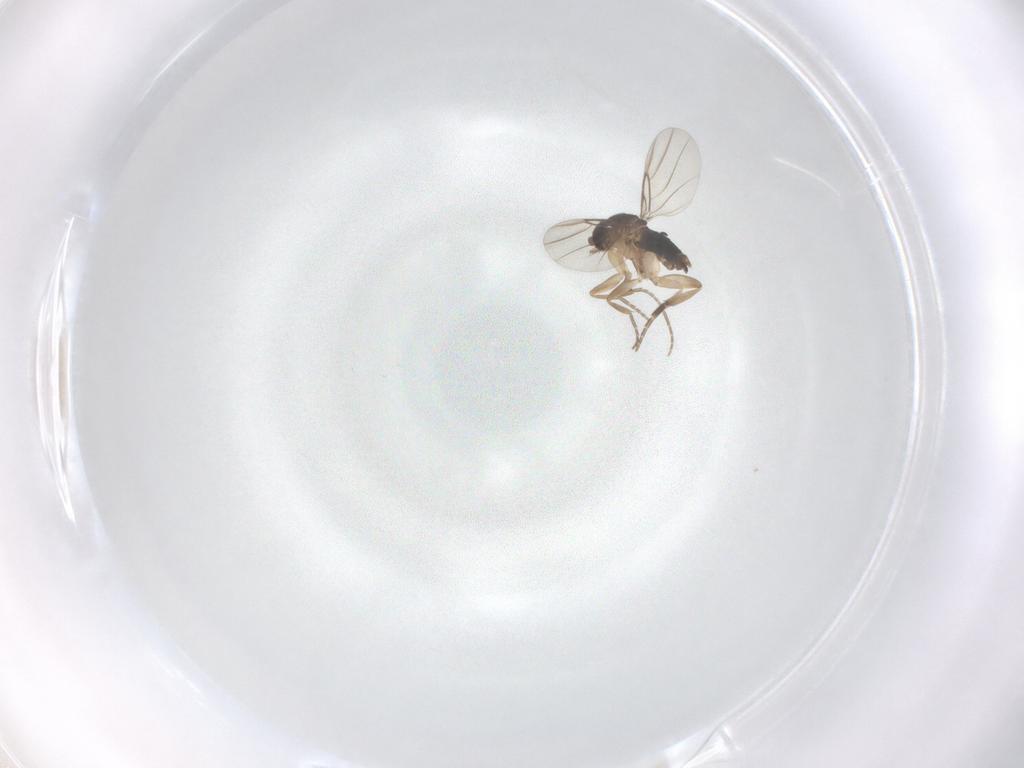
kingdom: Animalia
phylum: Arthropoda
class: Insecta
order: Diptera
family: Phoridae
